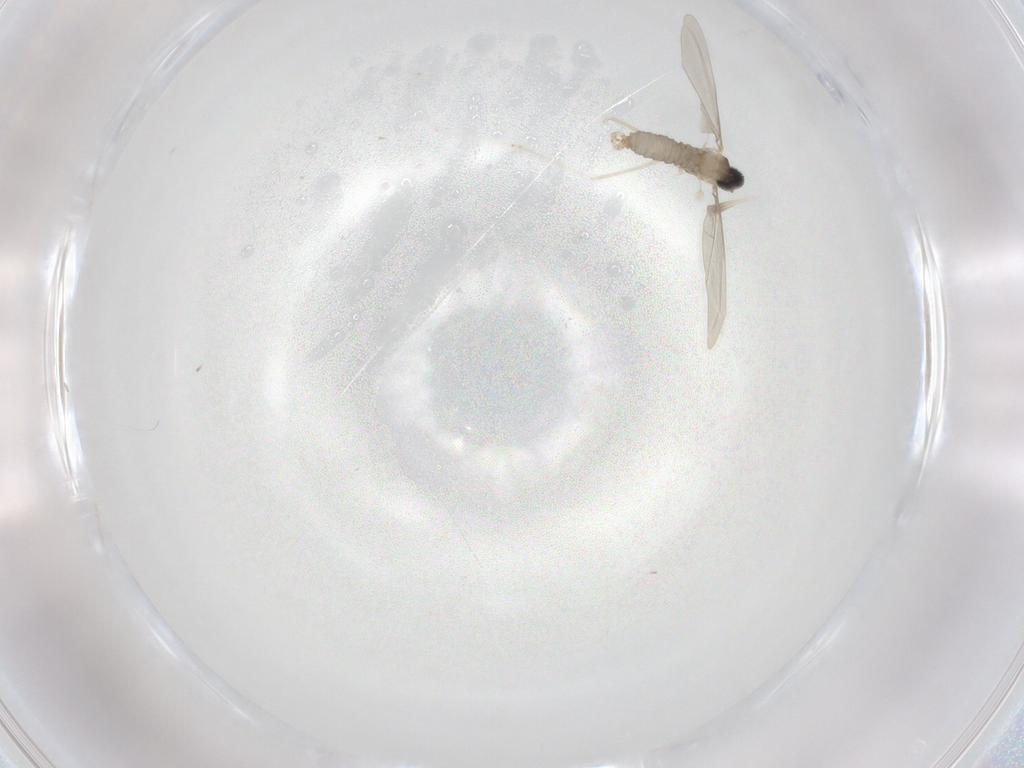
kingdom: Animalia
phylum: Arthropoda
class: Insecta
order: Diptera
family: Cecidomyiidae
